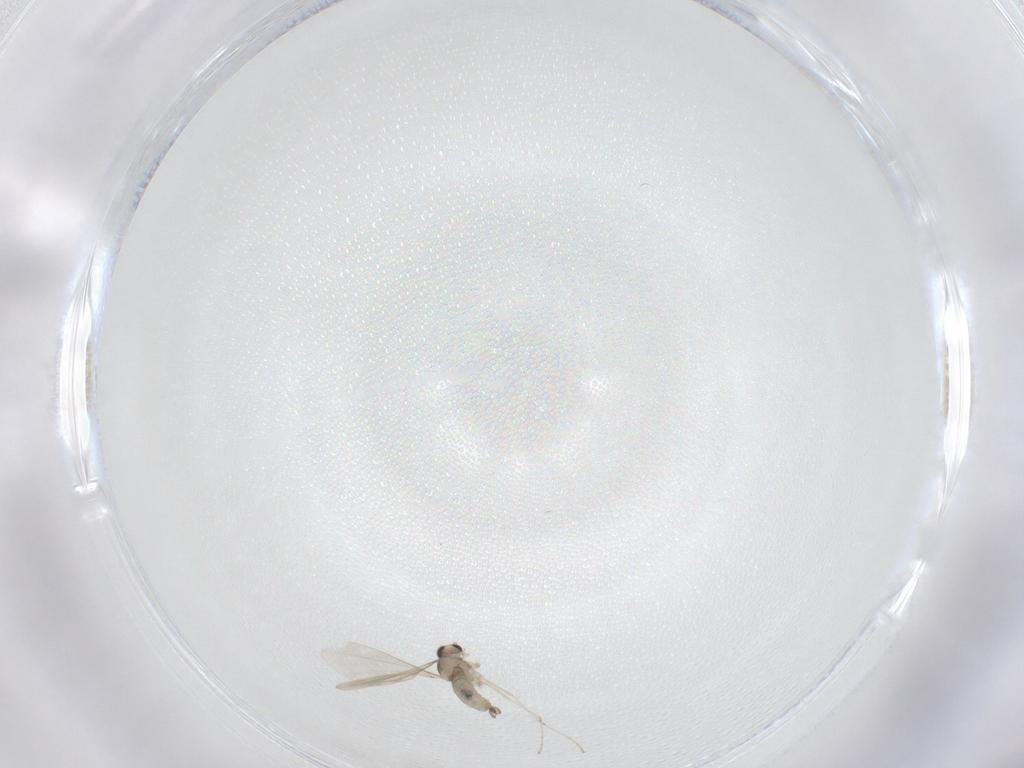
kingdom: Animalia
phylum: Arthropoda
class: Insecta
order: Diptera
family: Cecidomyiidae
